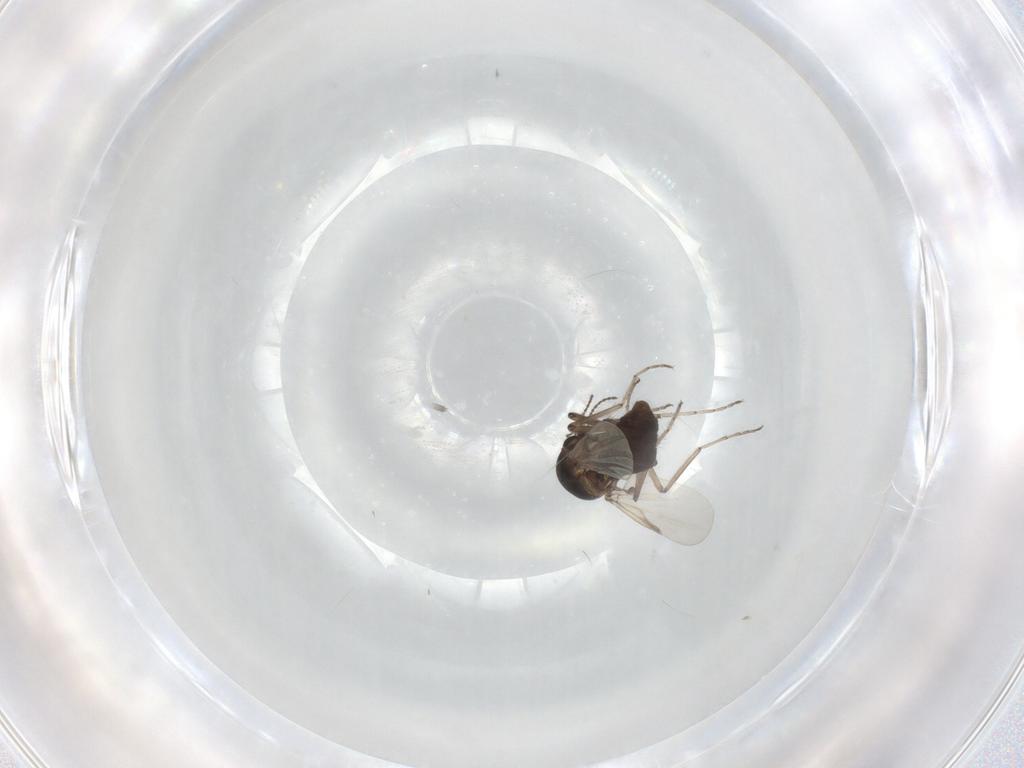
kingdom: Animalia
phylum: Arthropoda
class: Insecta
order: Diptera
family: Ceratopogonidae
